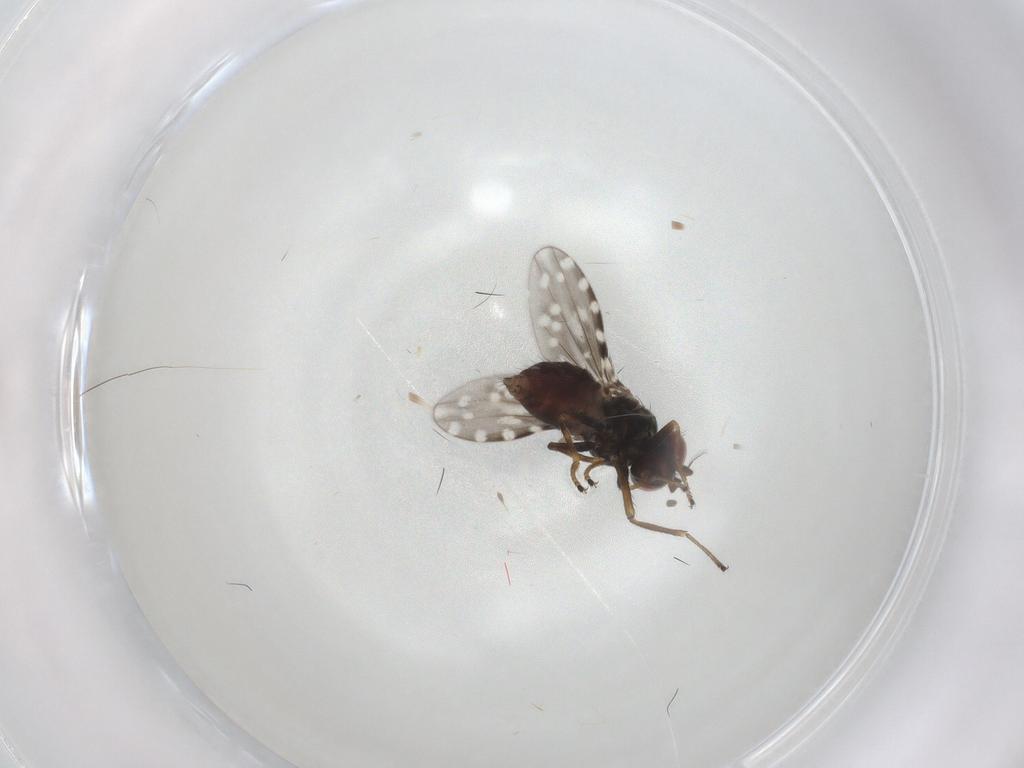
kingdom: Animalia
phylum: Arthropoda
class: Insecta
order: Diptera
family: Ephydridae
